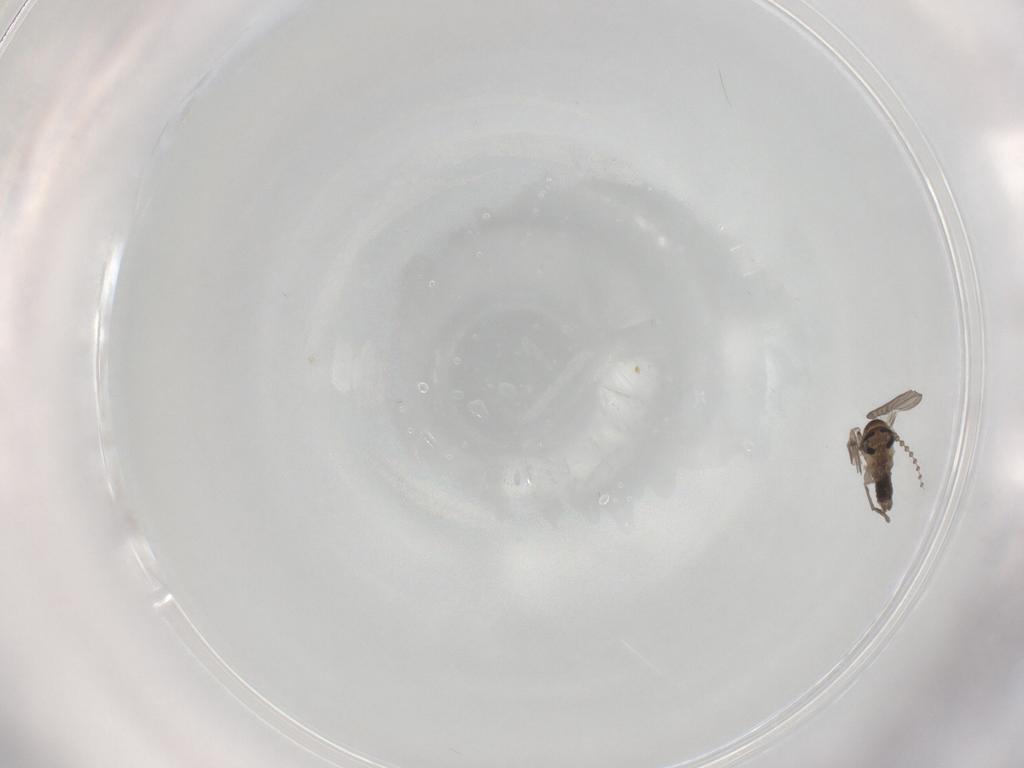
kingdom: Animalia
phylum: Arthropoda
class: Insecta
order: Diptera
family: Psychodidae
